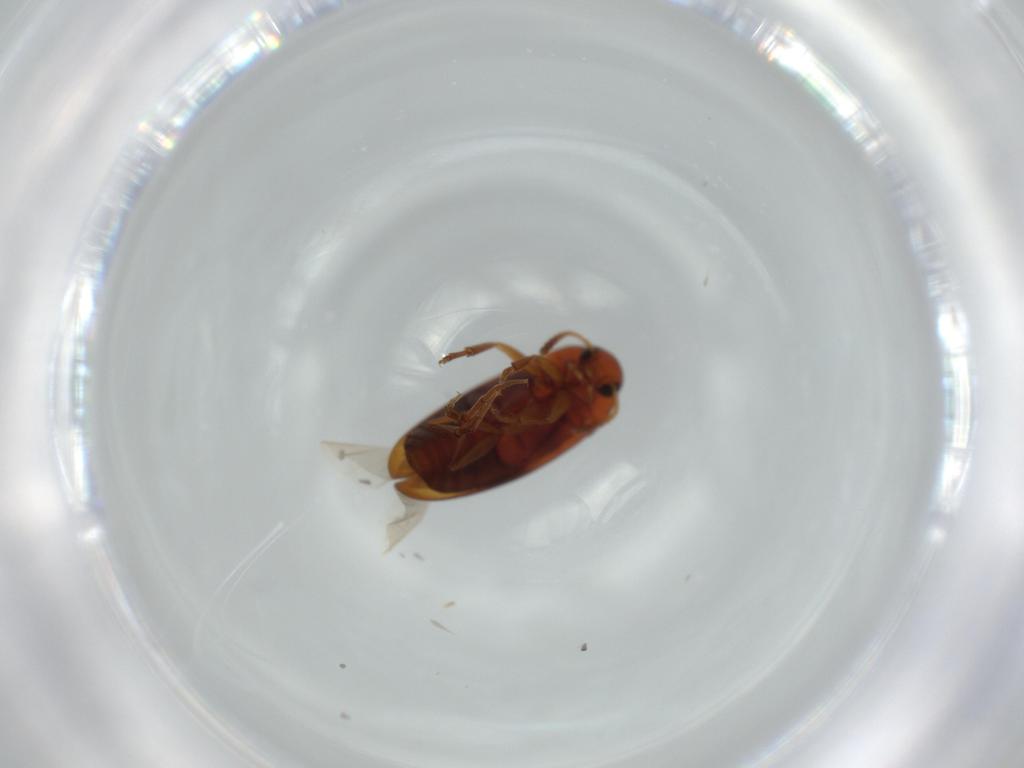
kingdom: Animalia
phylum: Arthropoda
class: Insecta
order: Coleoptera
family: Scraptiidae
